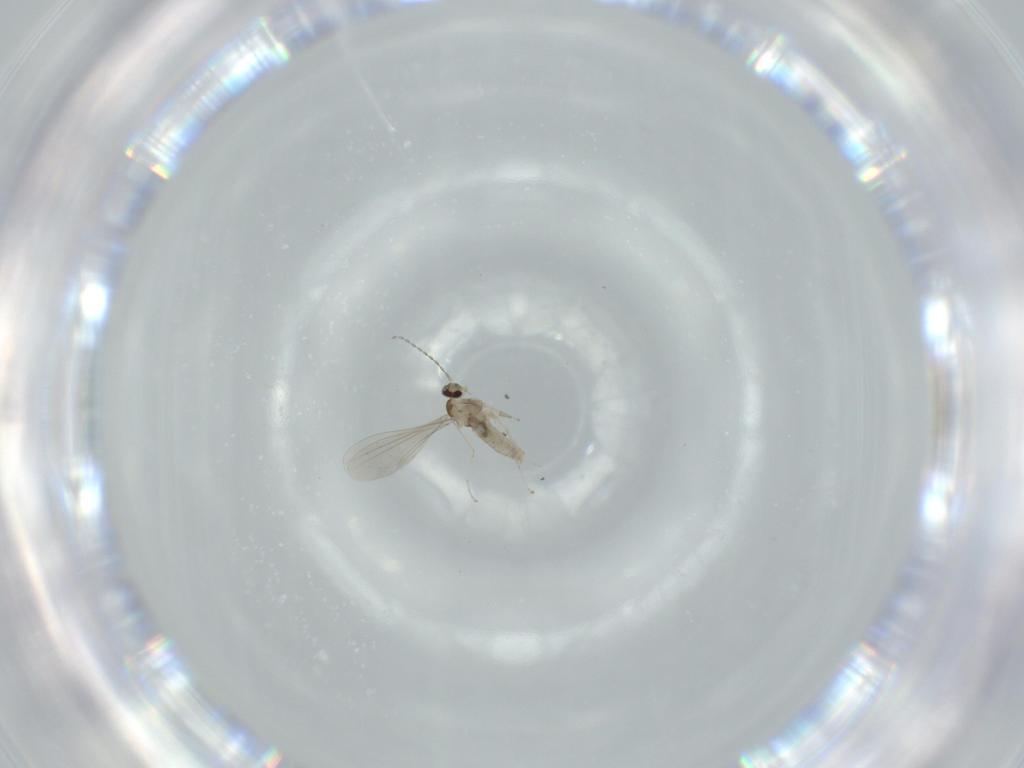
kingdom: Animalia
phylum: Arthropoda
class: Insecta
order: Diptera
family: Cecidomyiidae
